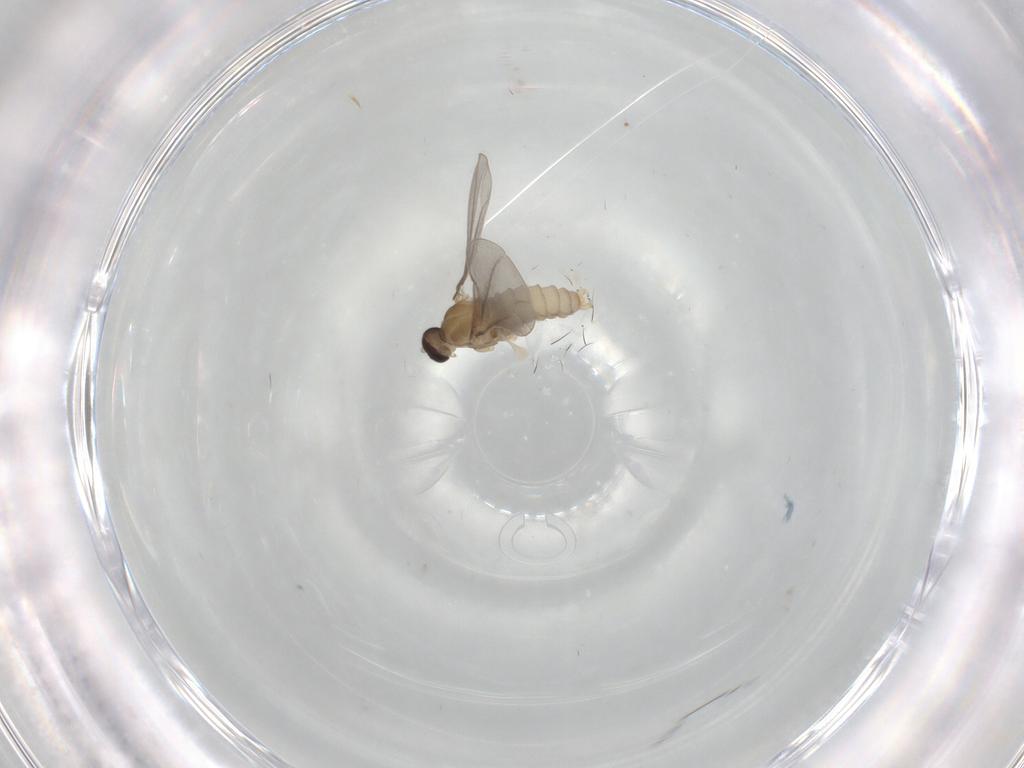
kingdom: Animalia
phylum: Arthropoda
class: Insecta
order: Diptera
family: Cecidomyiidae
